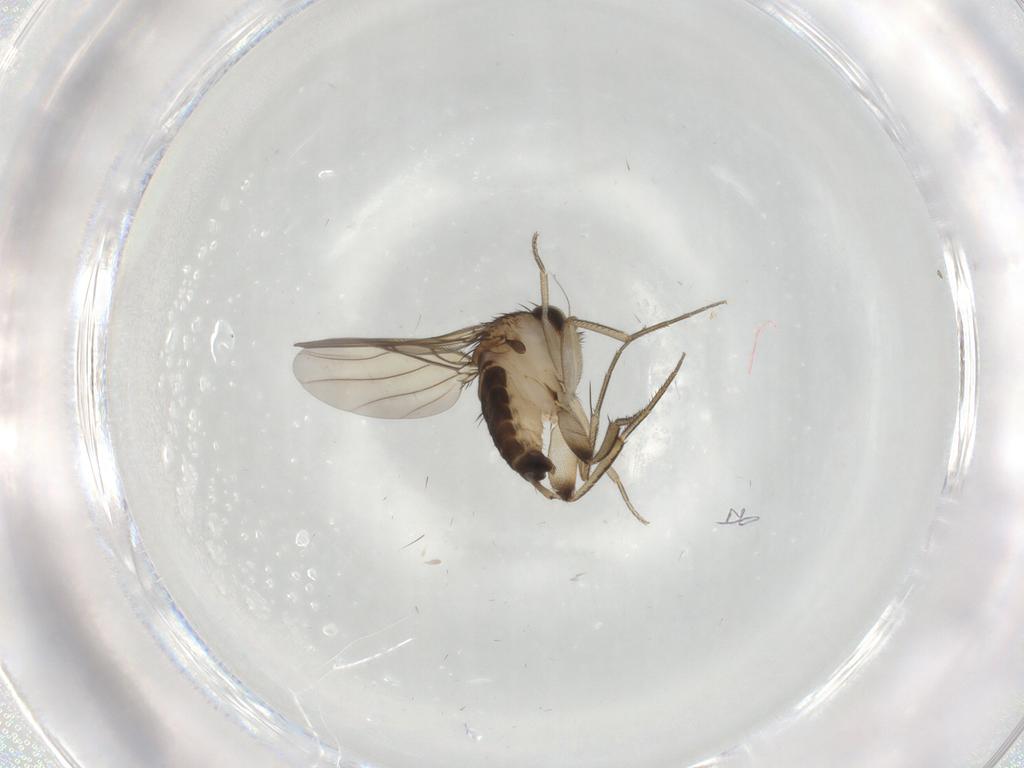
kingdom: Animalia
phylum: Arthropoda
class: Insecta
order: Diptera
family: Phoridae
